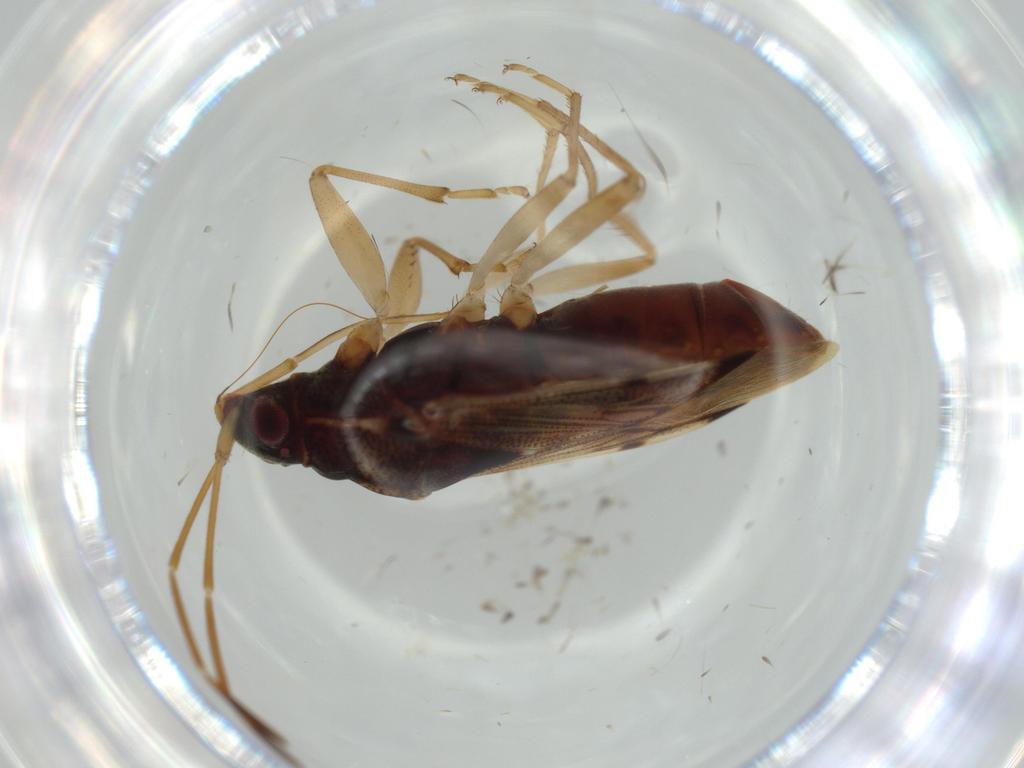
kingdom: Animalia
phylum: Arthropoda
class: Insecta
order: Hemiptera
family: Rhyparochromidae
